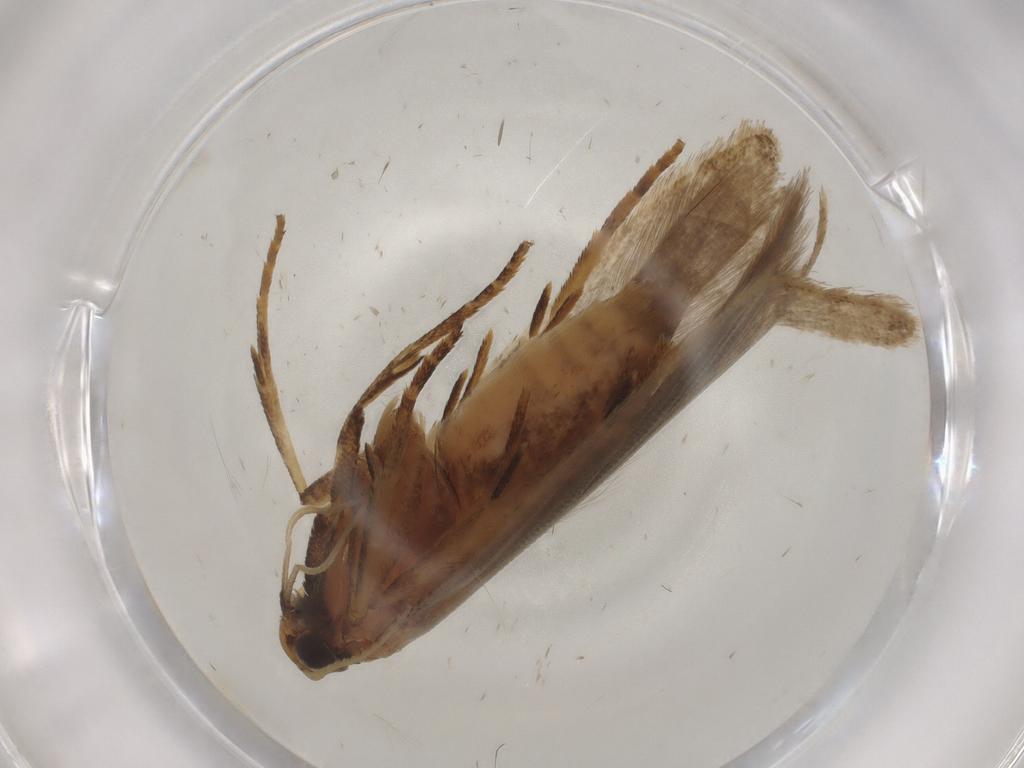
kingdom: Animalia
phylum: Arthropoda
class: Insecta
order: Lepidoptera
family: Gelechiidae
